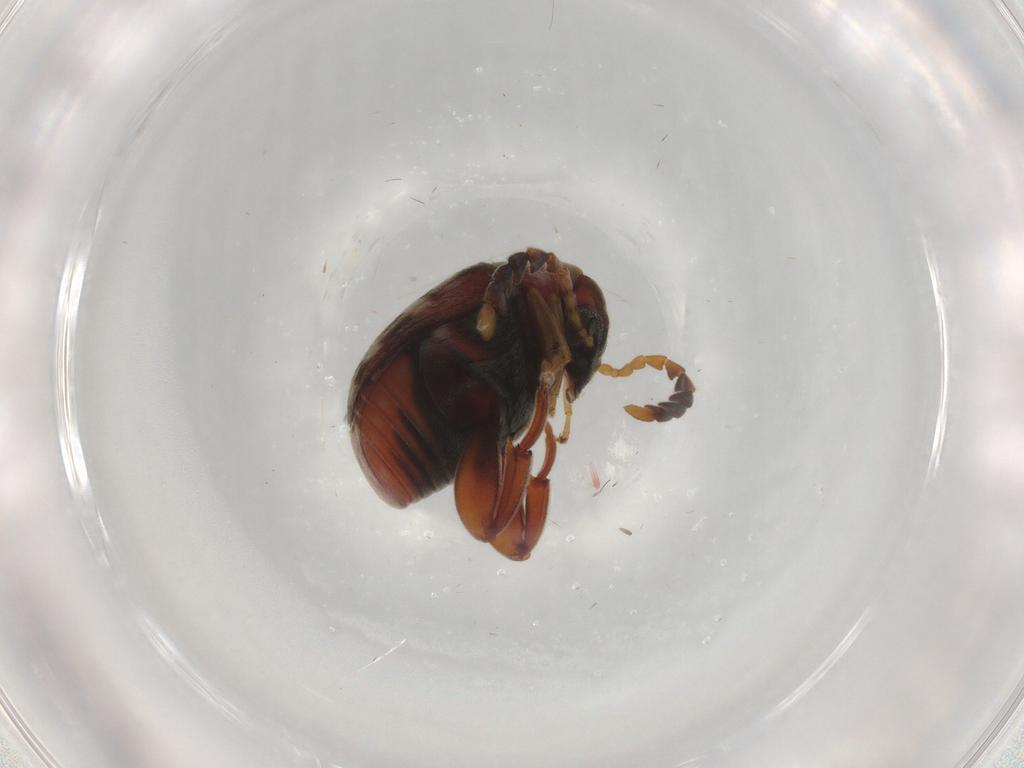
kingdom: Animalia
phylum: Arthropoda
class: Insecta
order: Coleoptera
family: Chrysomelidae
